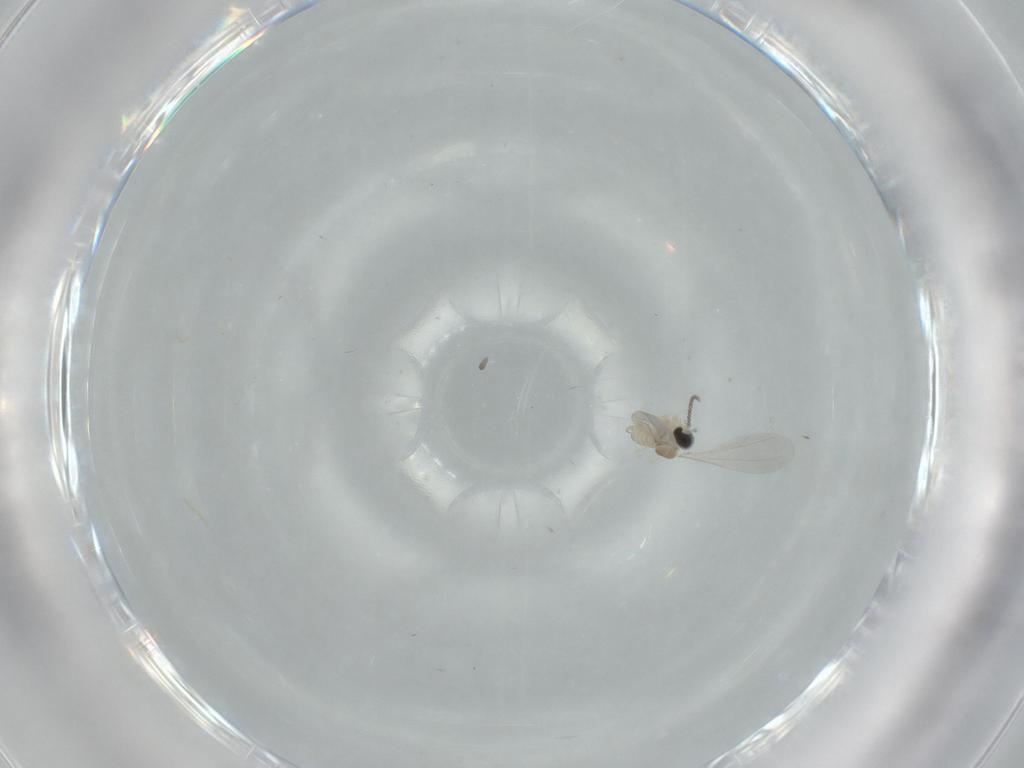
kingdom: Animalia
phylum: Arthropoda
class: Insecta
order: Diptera
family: Cecidomyiidae
